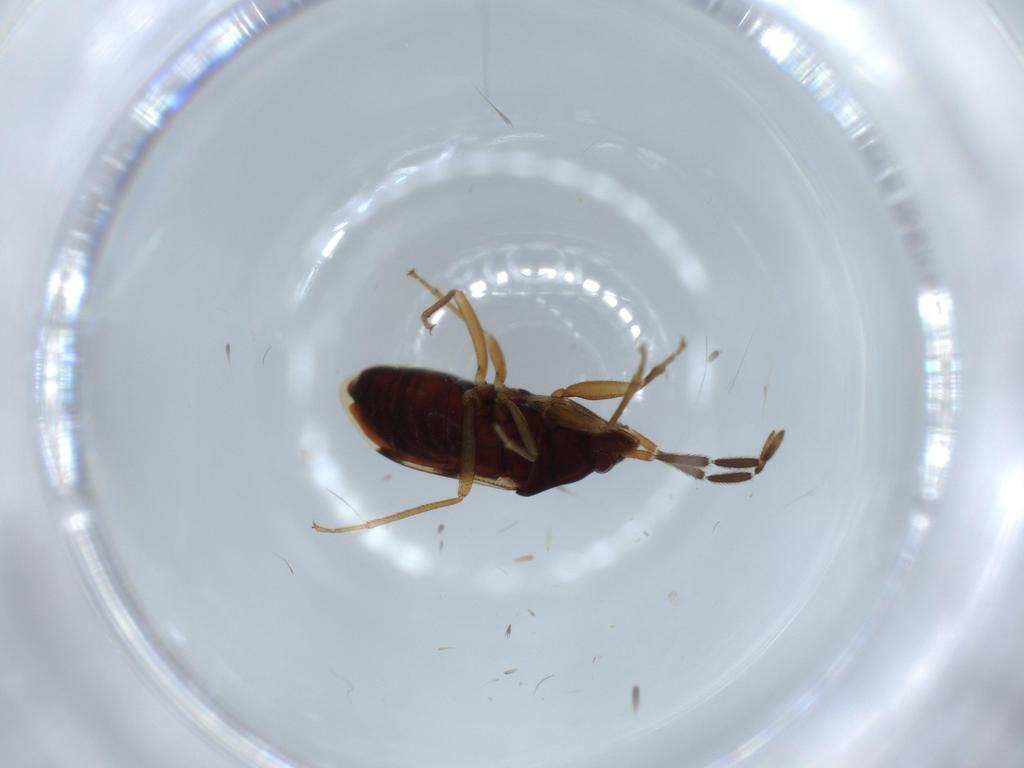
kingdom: Animalia
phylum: Arthropoda
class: Insecta
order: Hemiptera
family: Rhyparochromidae
